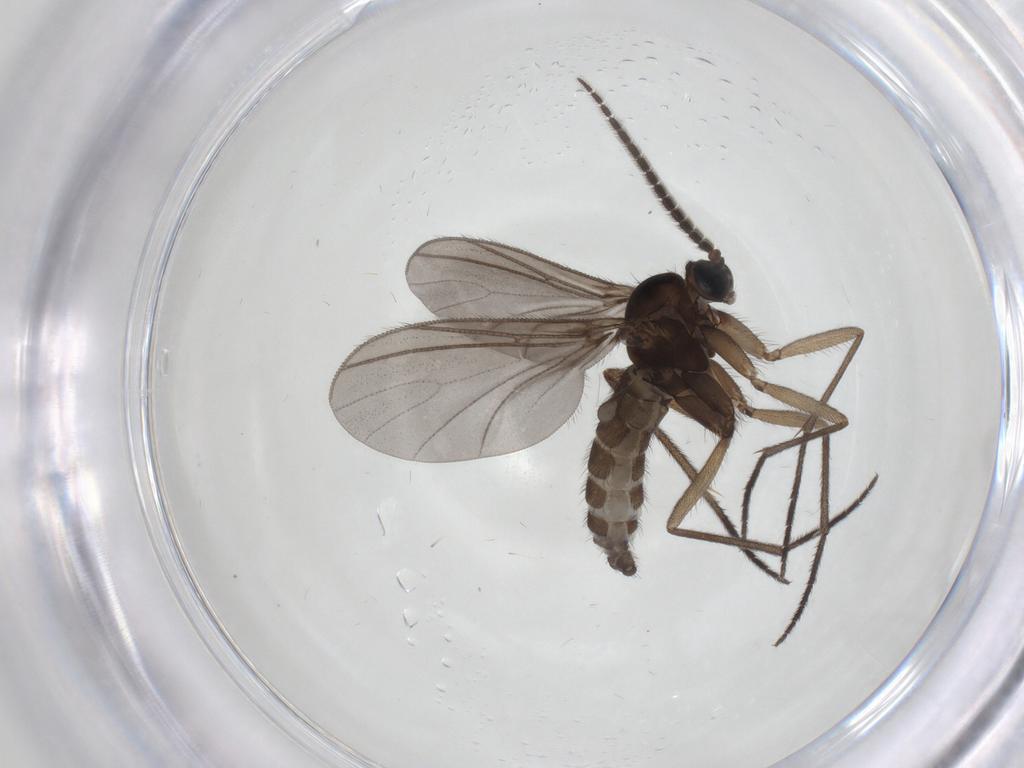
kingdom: Animalia
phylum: Arthropoda
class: Insecta
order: Diptera
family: Sciaridae
